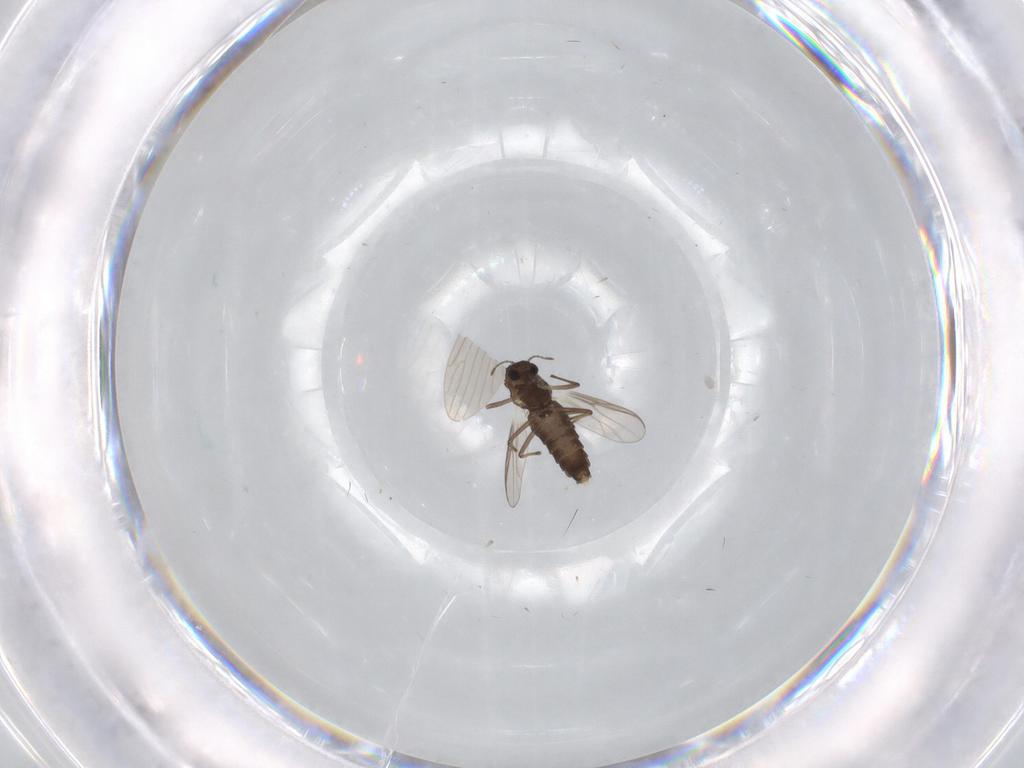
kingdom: Animalia
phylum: Arthropoda
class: Insecta
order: Diptera
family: Chironomidae
